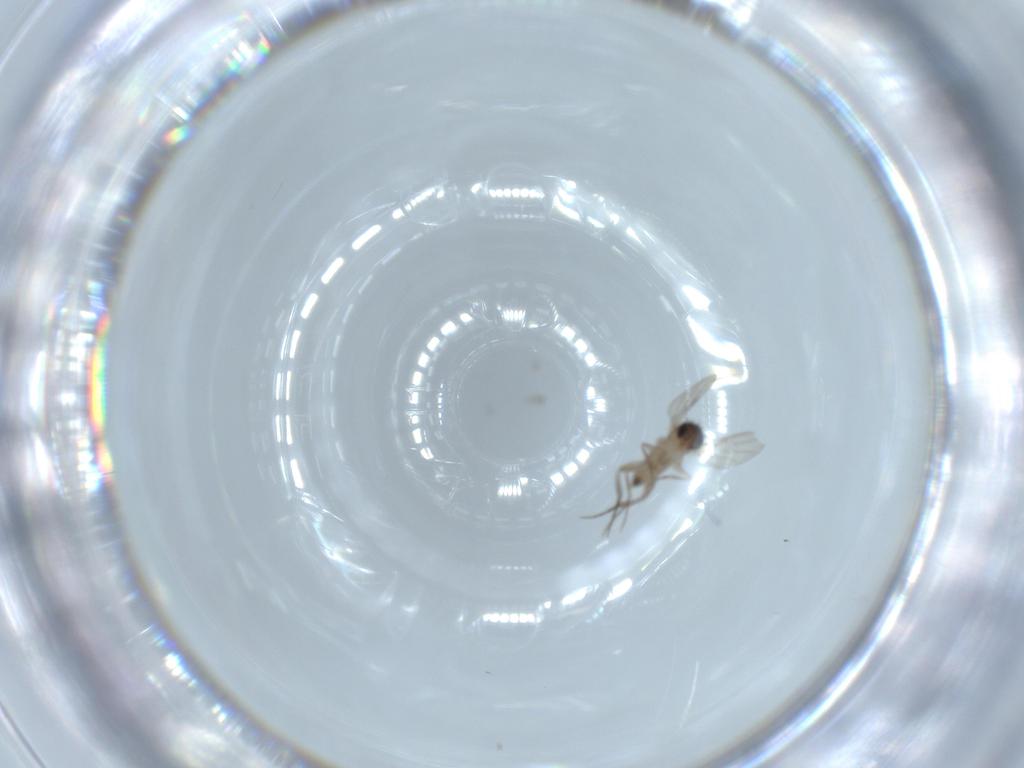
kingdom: Animalia
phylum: Arthropoda
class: Insecta
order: Diptera
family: Phoridae
